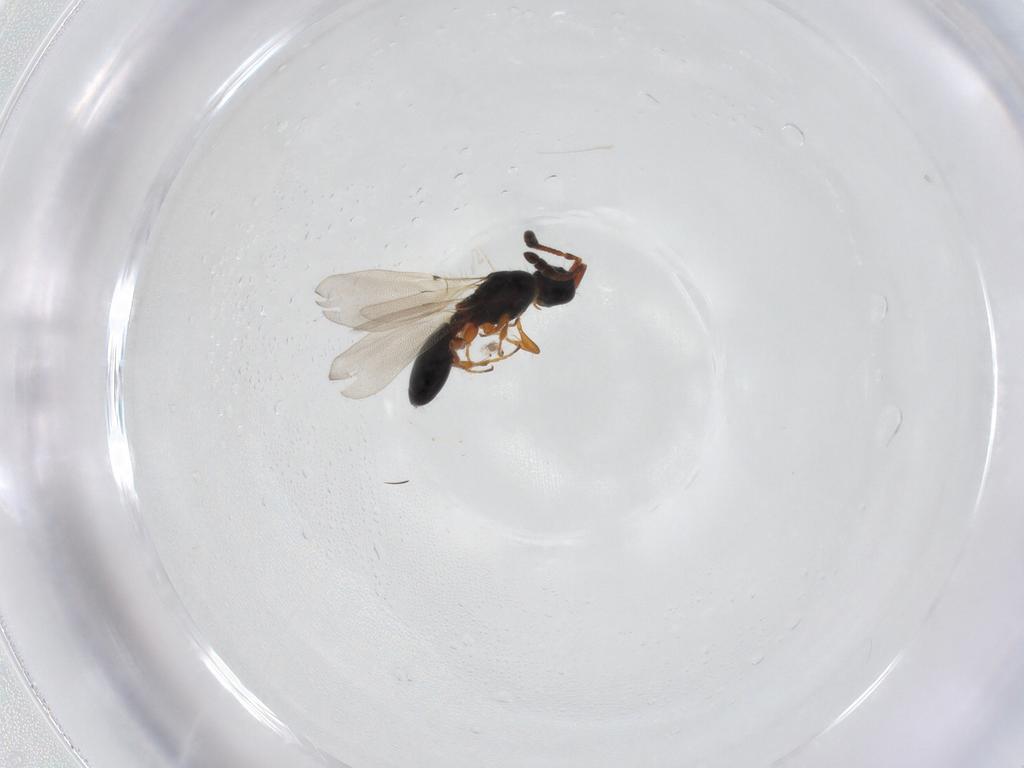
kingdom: Animalia
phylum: Arthropoda
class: Insecta
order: Hymenoptera
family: Diapriidae
